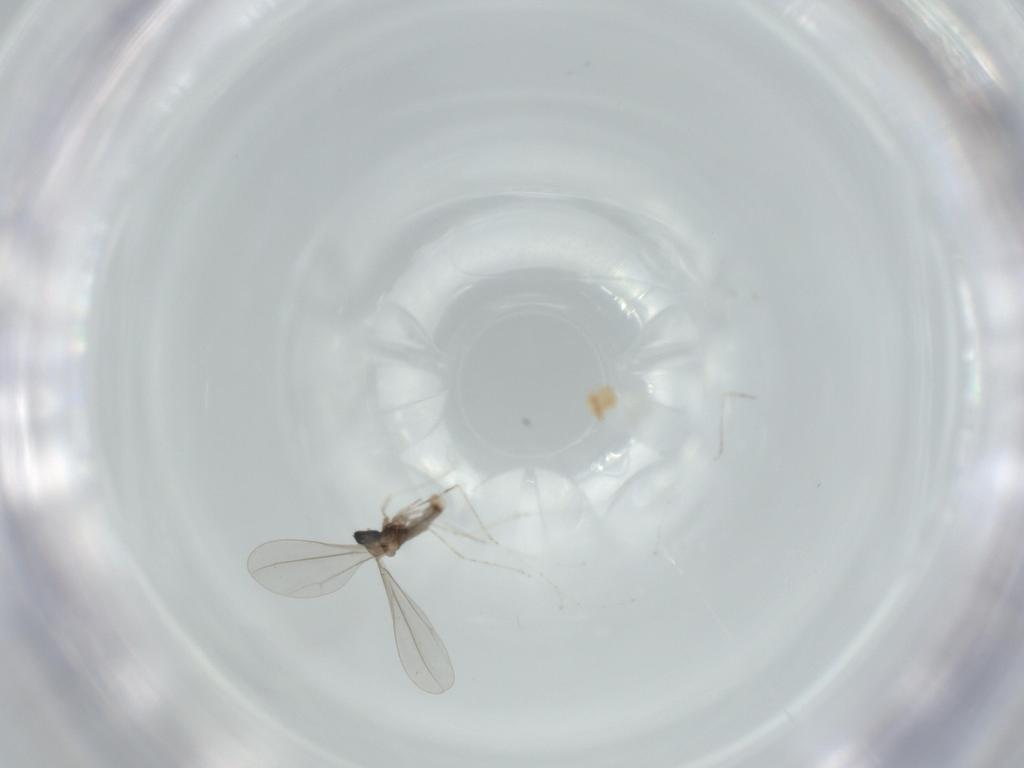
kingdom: Animalia
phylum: Arthropoda
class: Insecta
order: Diptera
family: Cecidomyiidae
